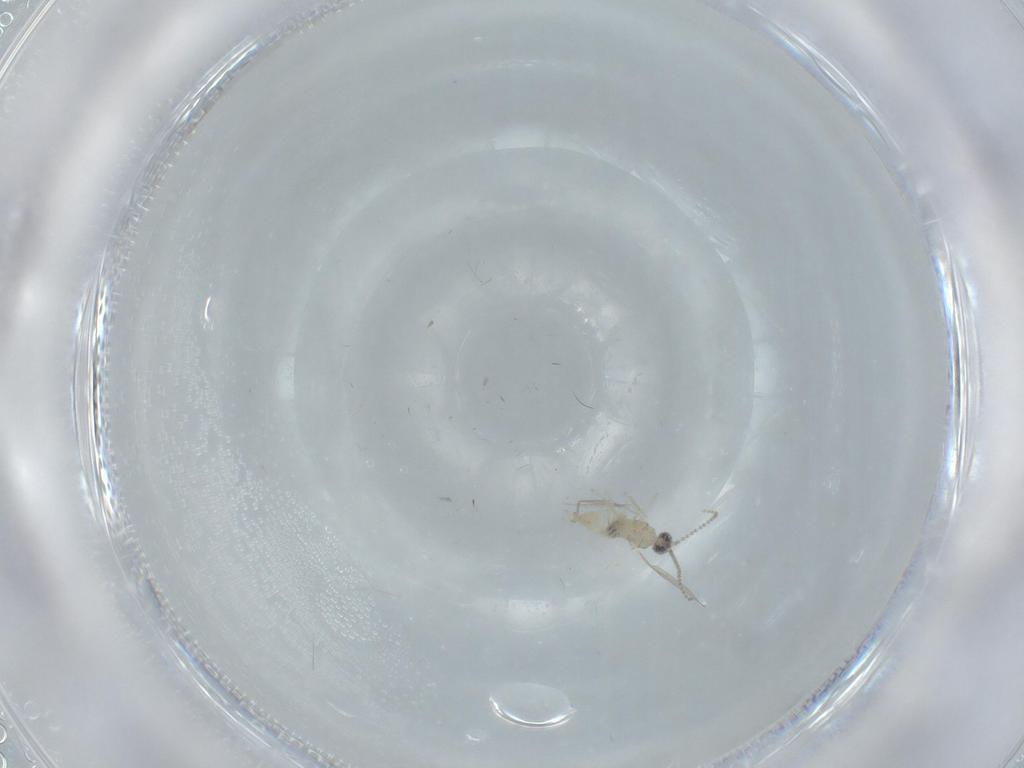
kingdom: Animalia
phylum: Arthropoda
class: Insecta
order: Diptera
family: Cecidomyiidae
